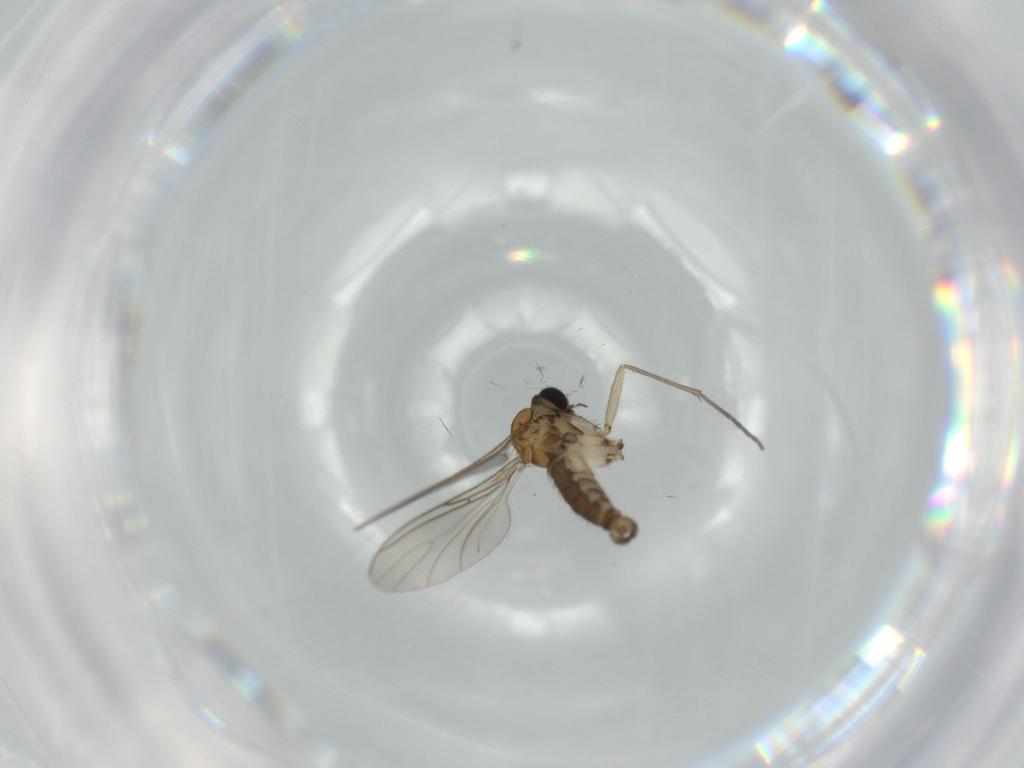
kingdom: Animalia
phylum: Arthropoda
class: Insecta
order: Diptera
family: Sciaridae
